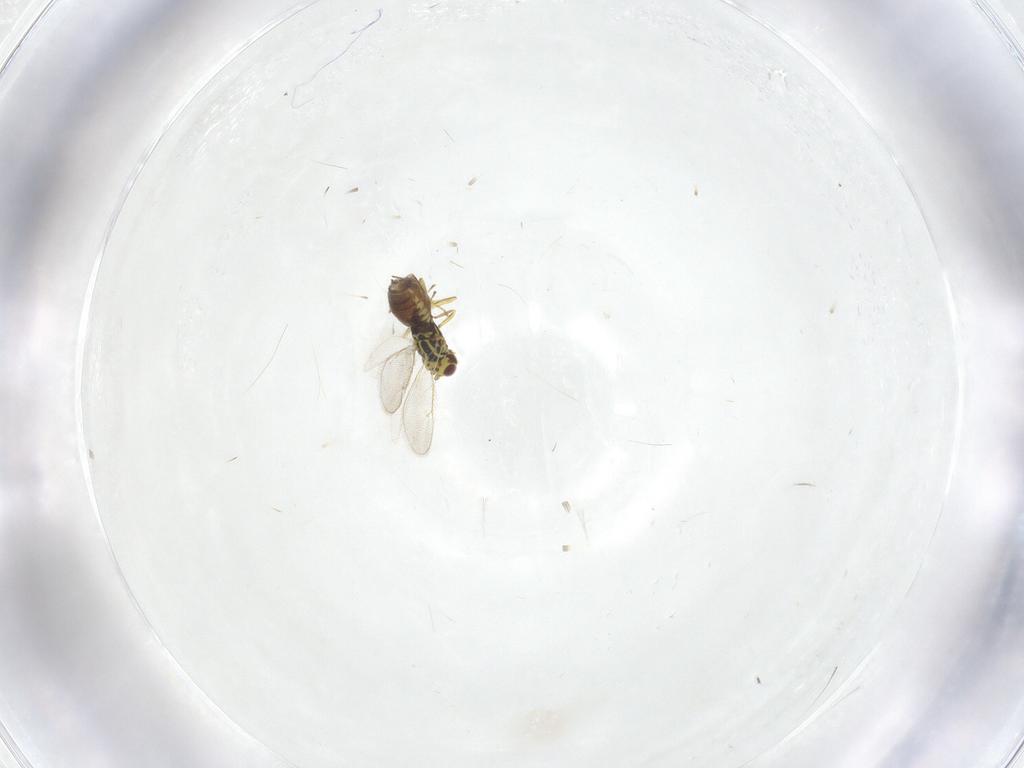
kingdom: Animalia
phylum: Arthropoda
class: Insecta
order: Hymenoptera
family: Eulophidae
